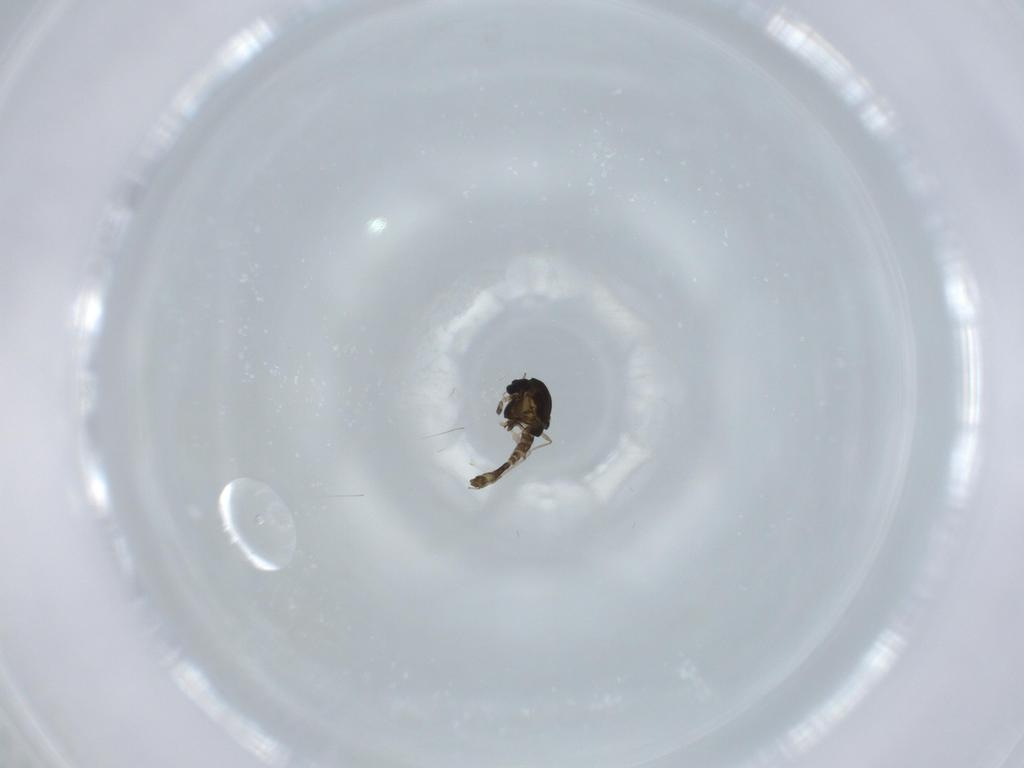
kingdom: Animalia
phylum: Arthropoda
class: Insecta
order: Diptera
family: Chironomidae
